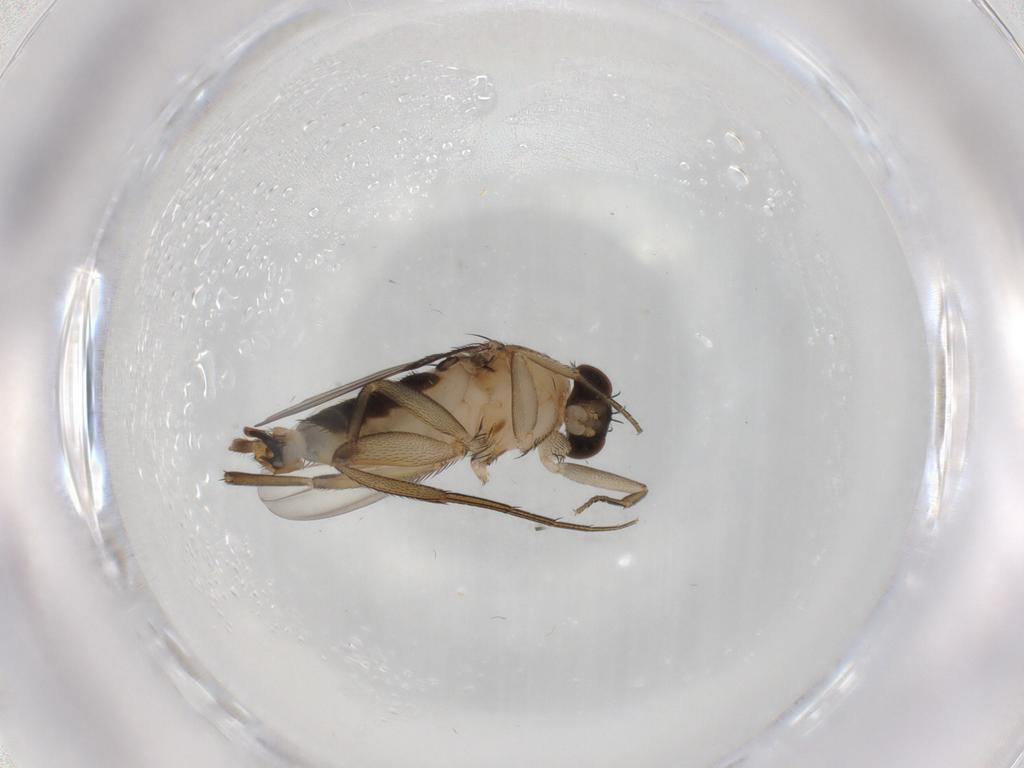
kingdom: Animalia
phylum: Arthropoda
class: Insecta
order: Diptera
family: Phoridae
